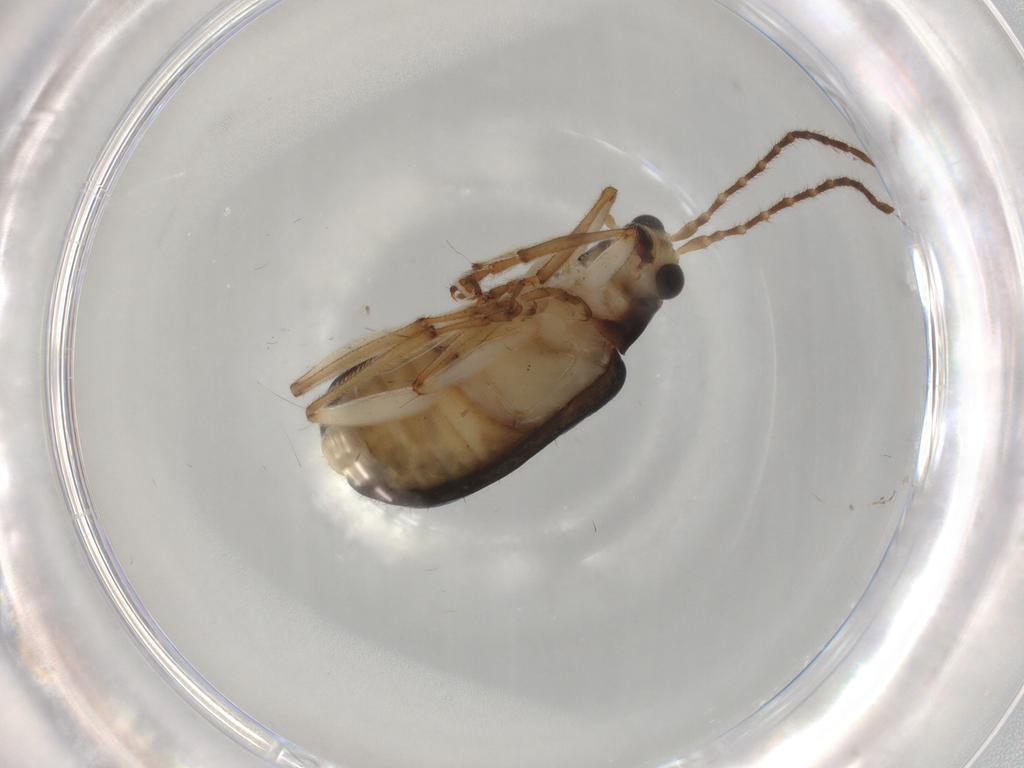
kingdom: Animalia
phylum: Arthropoda
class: Insecta
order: Coleoptera
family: Chrysomelidae
